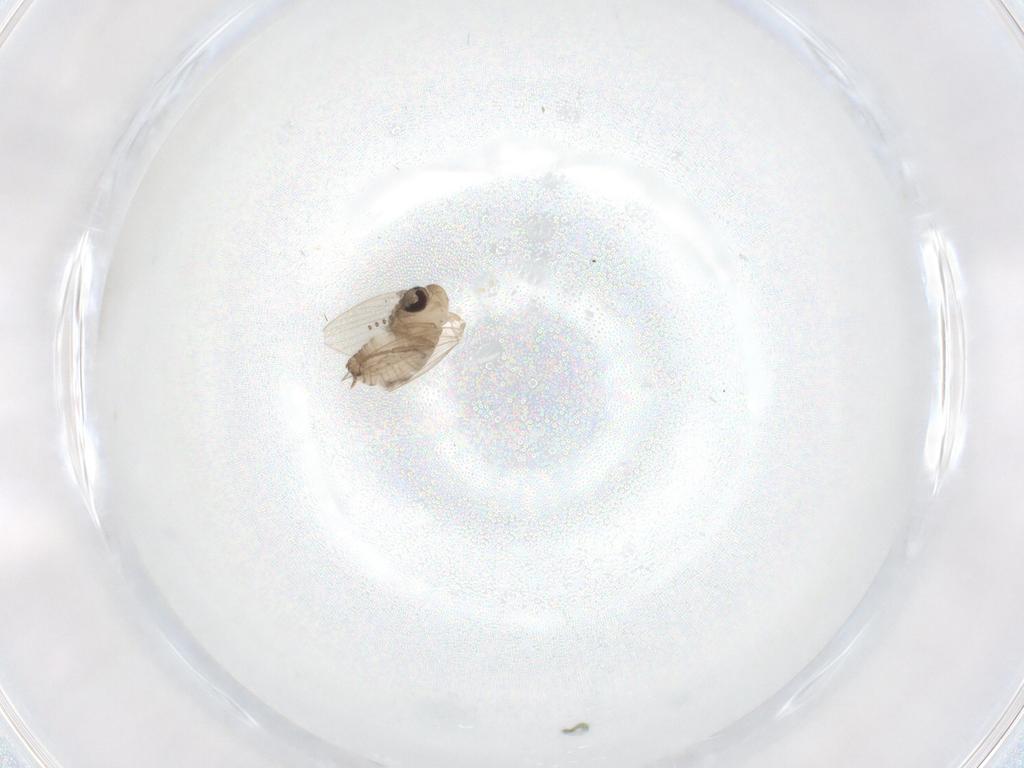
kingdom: Animalia
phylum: Arthropoda
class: Insecta
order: Diptera
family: Psychodidae
